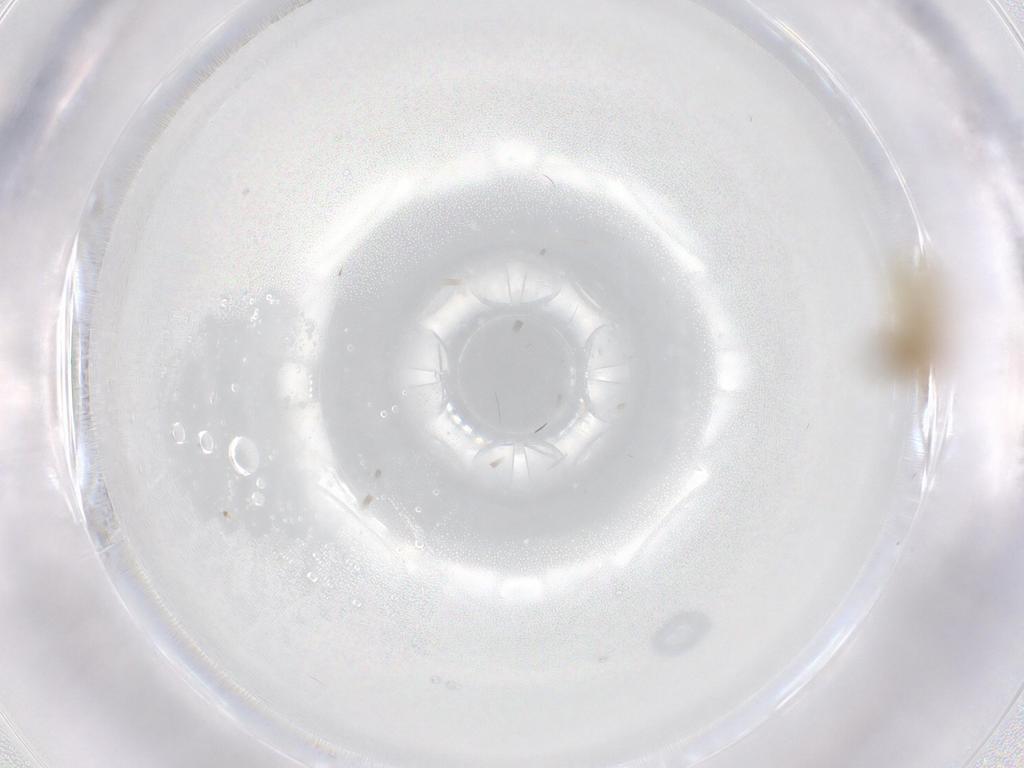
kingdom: Animalia
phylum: Arthropoda
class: Insecta
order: Diptera
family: Chironomidae
